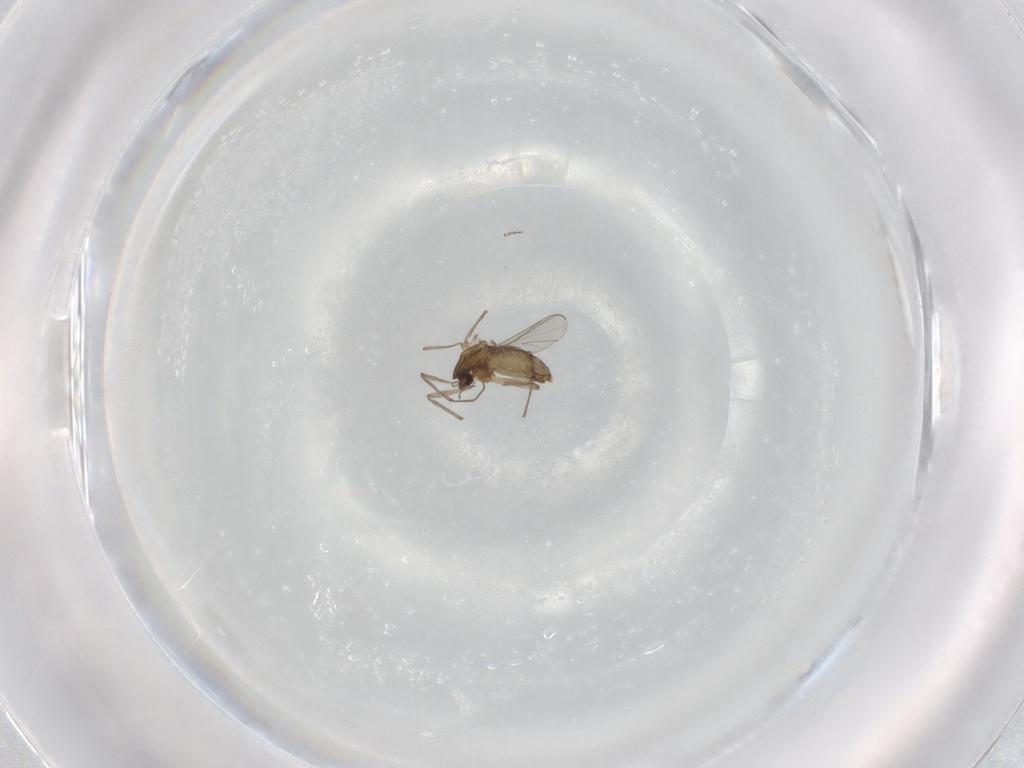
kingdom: Animalia
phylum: Arthropoda
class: Insecta
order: Diptera
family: Chironomidae
